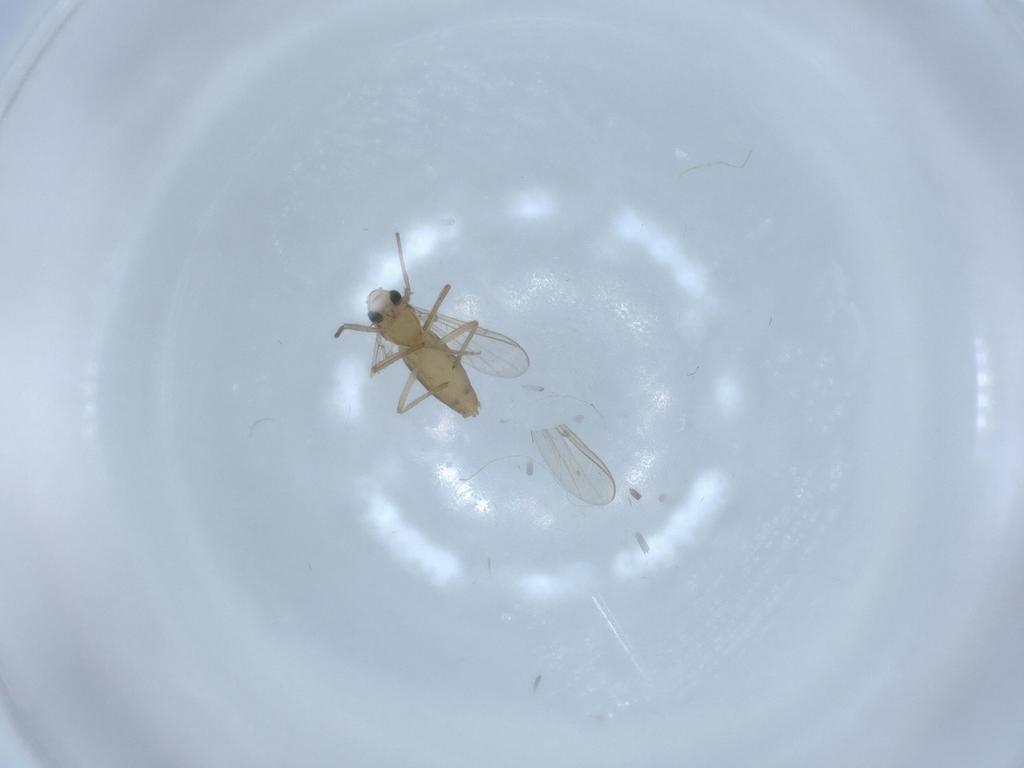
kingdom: Animalia
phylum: Arthropoda
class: Insecta
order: Diptera
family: Chironomidae
